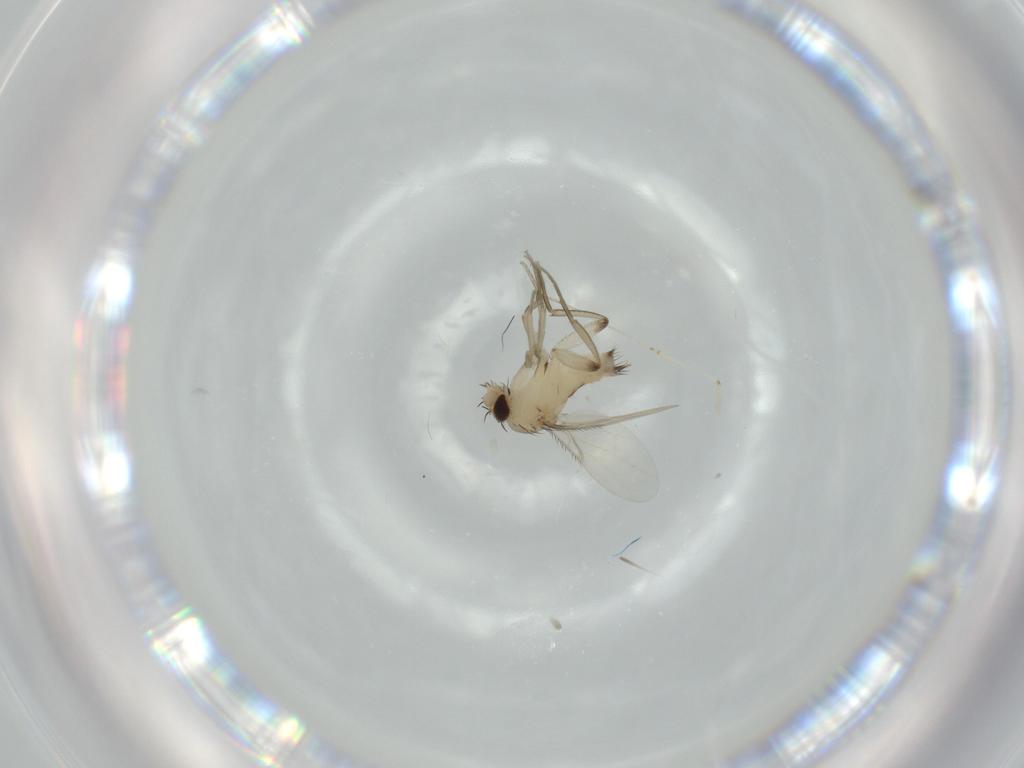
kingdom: Animalia
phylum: Arthropoda
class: Insecta
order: Diptera
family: Phoridae
